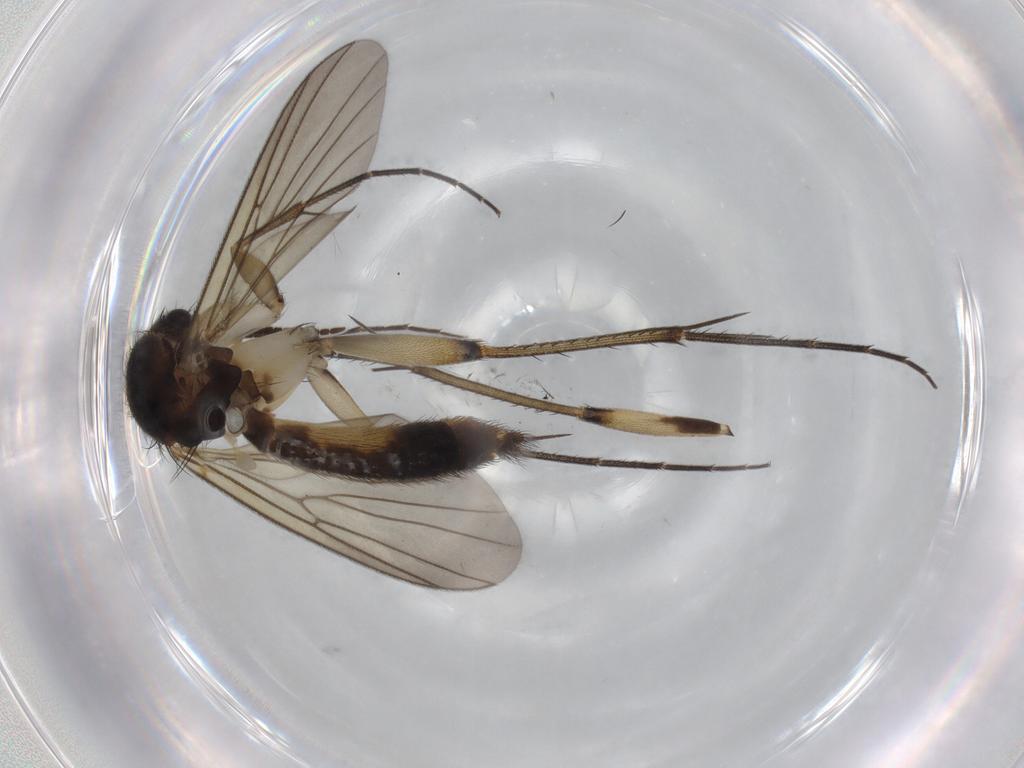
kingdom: Animalia
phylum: Arthropoda
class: Insecta
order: Diptera
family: Mycetophilidae
